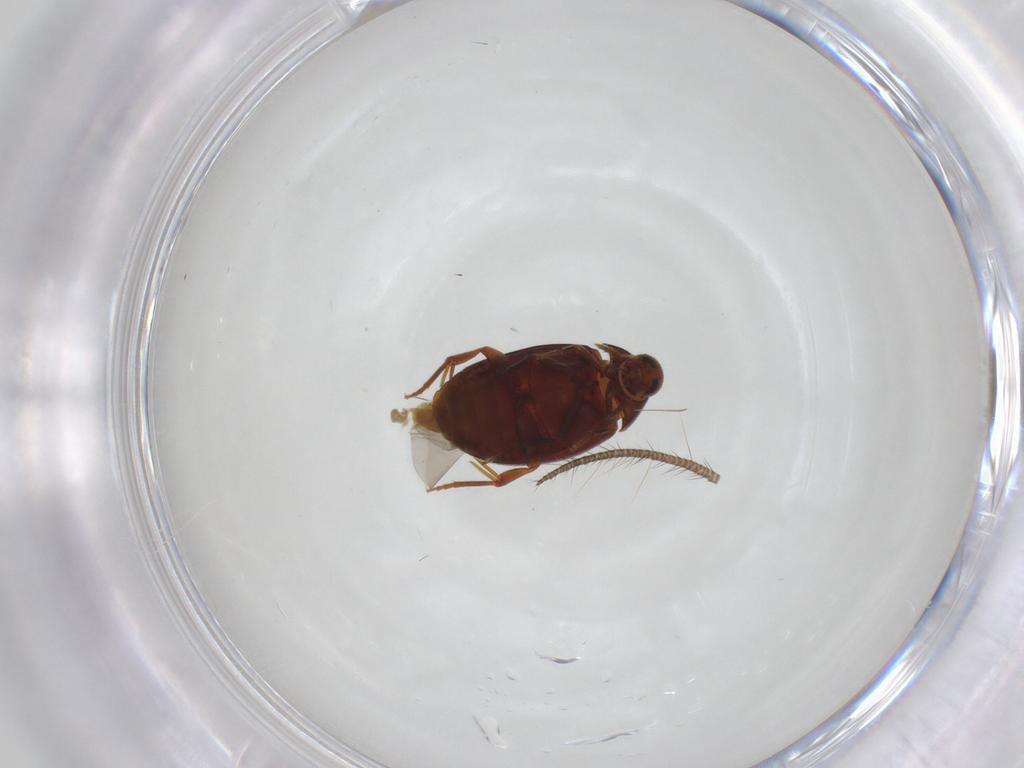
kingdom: Animalia
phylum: Arthropoda
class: Insecta
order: Coleoptera
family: Melandryidae
